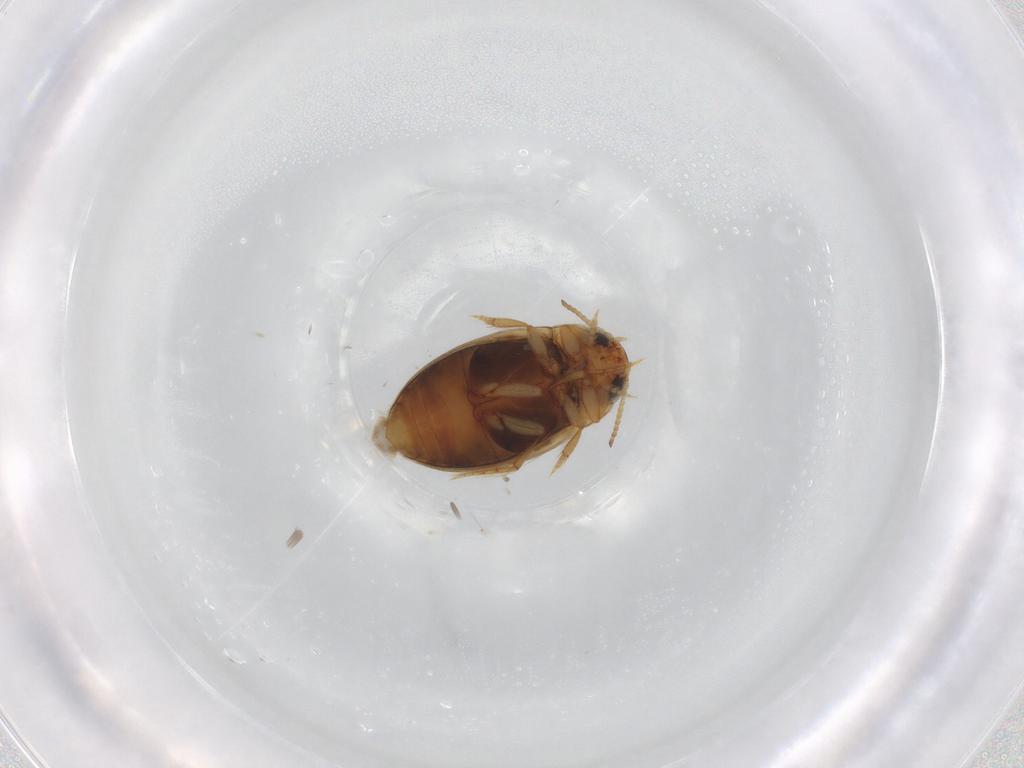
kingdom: Animalia
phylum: Arthropoda
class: Insecta
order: Coleoptera
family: Dytiscidae
